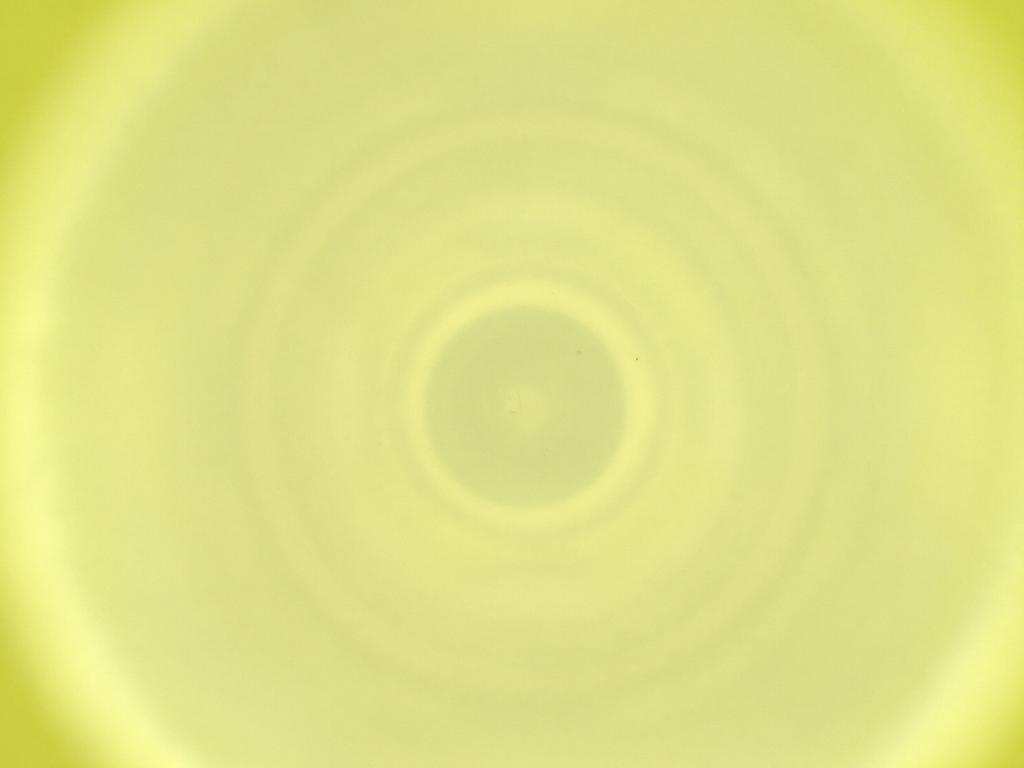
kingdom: Animalia
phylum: Arthropoda
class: Insecta
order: Diptera
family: Cecidomyiidae
